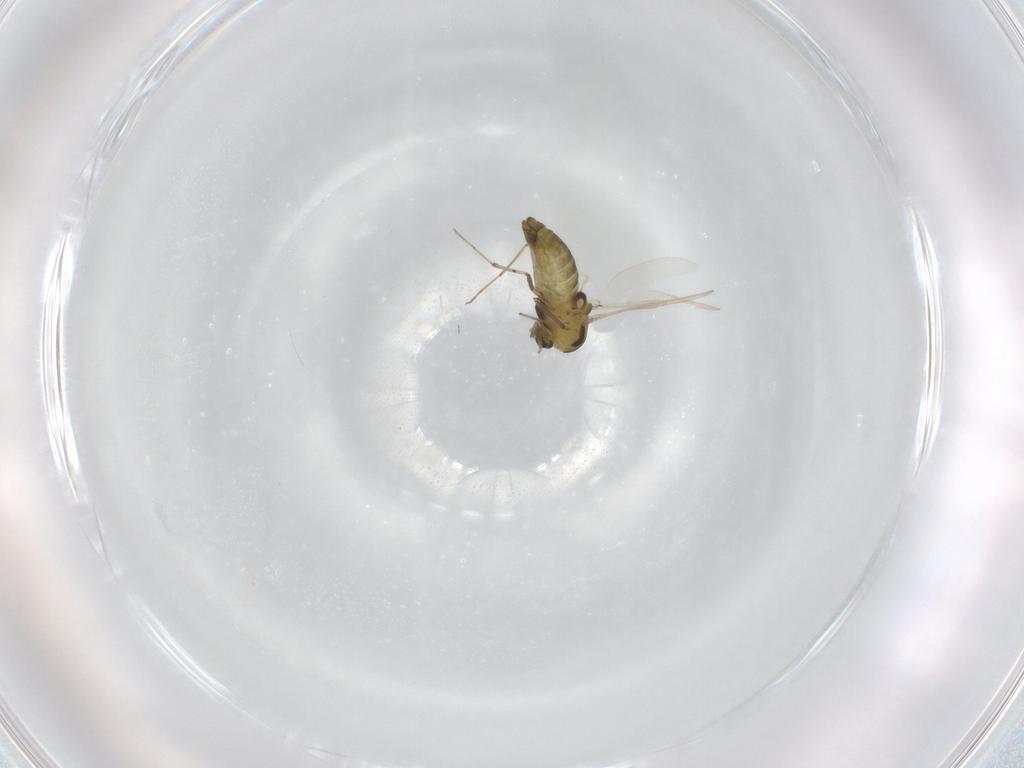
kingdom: Animalia
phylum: Arthropoda
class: Insecta
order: Diptera
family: Chironomidae
